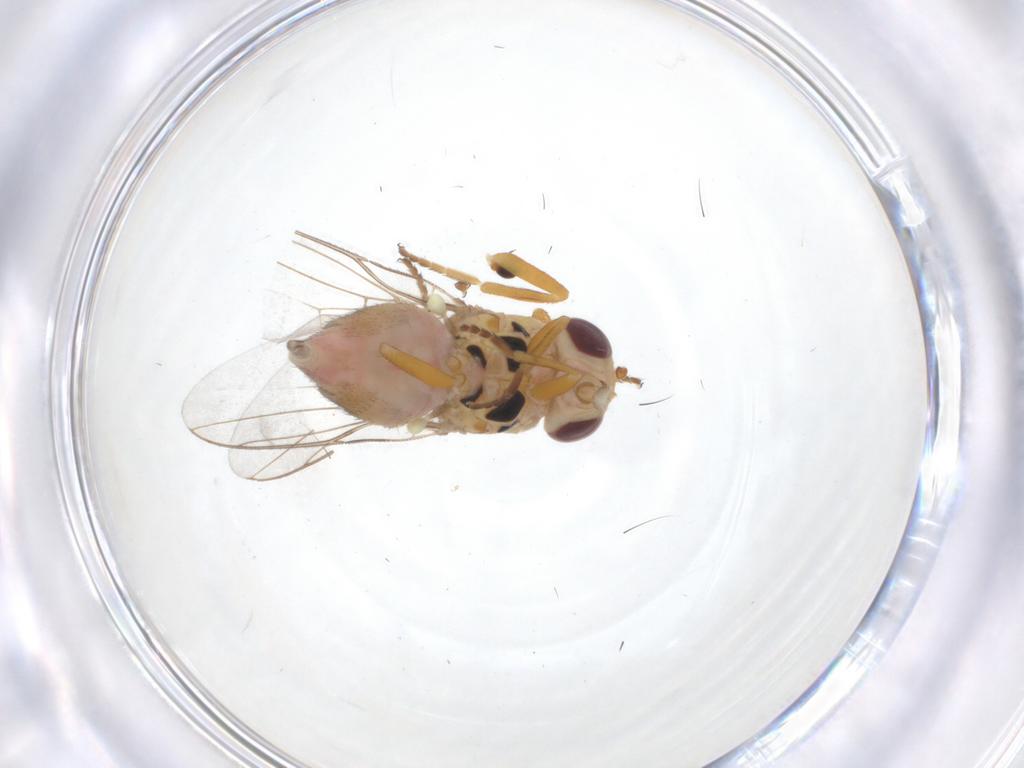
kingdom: Animalia
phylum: Arthropoda
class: Insecta
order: Diptera
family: Chloropidae
